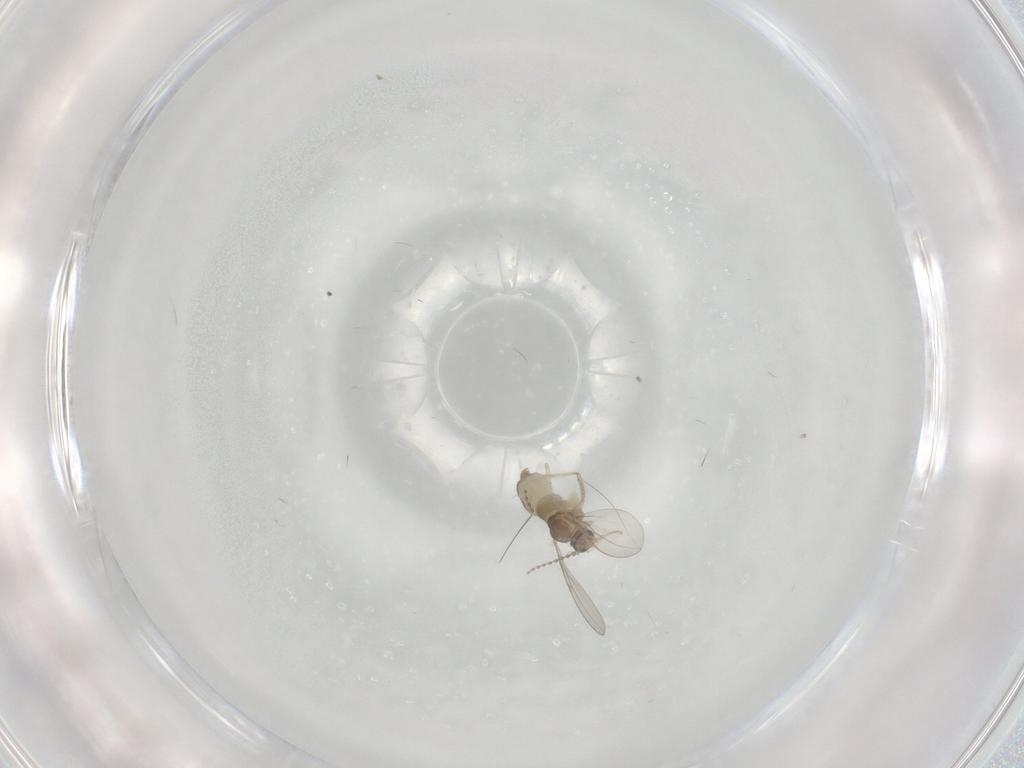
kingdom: Animalia
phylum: Arthropoda
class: Insecta
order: Diptera
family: Cecidomyiidae
